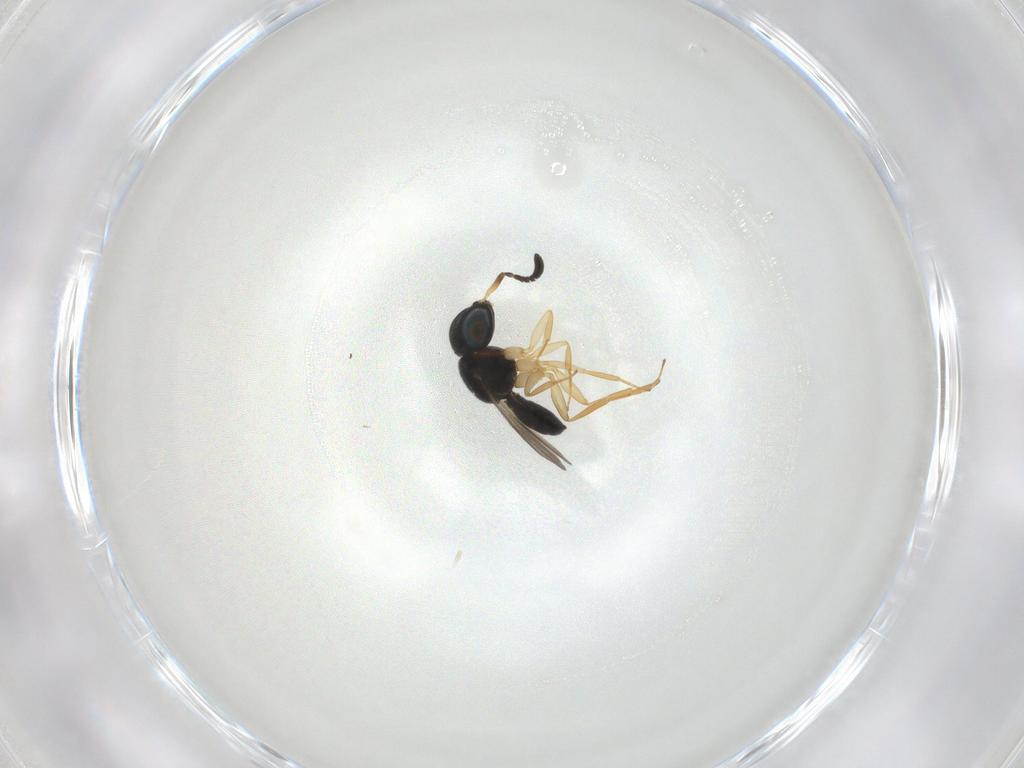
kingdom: Animalia
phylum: Arthropoda
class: Insecta
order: Hymenoptera
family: Scelionidae
